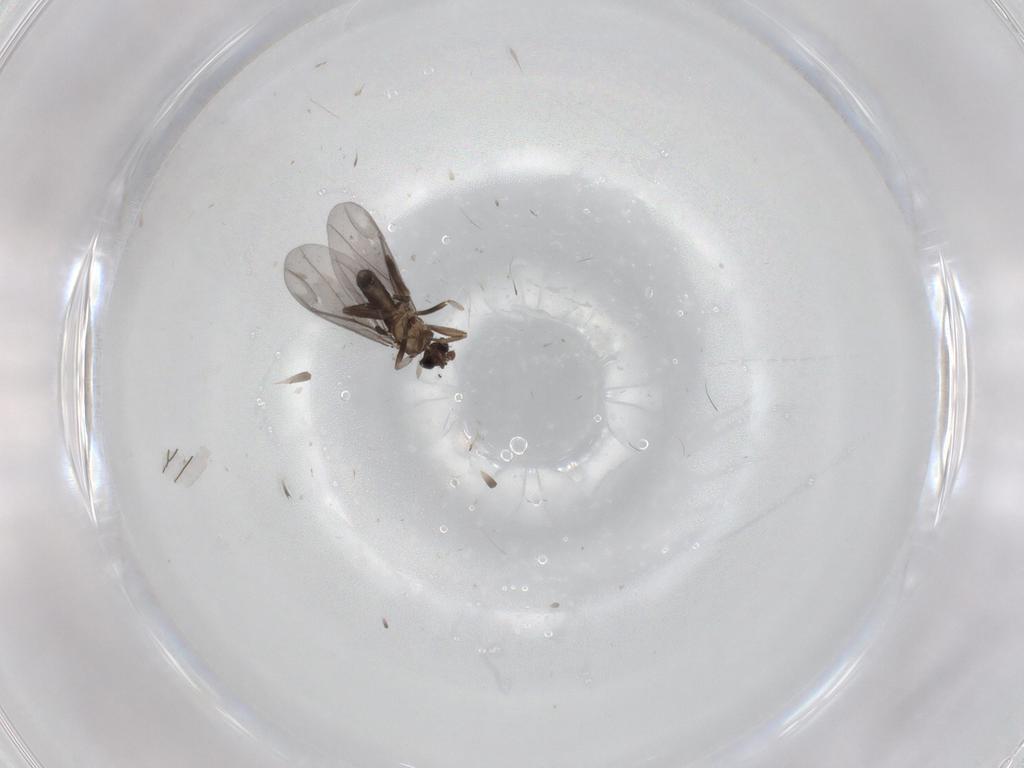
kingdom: Animalia
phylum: Arthropoda
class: Insecta
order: Diptera
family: Phoridae
